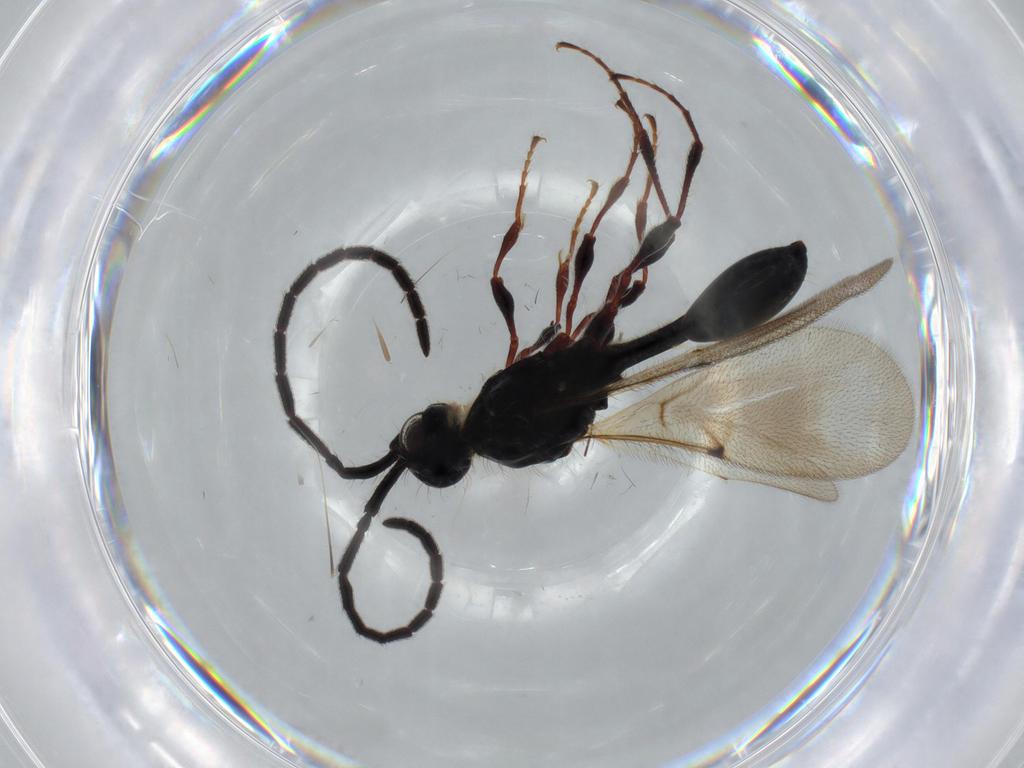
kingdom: Animalia
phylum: Arthropoda
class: Insecta
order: Hymenoptera
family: Diapriidae
